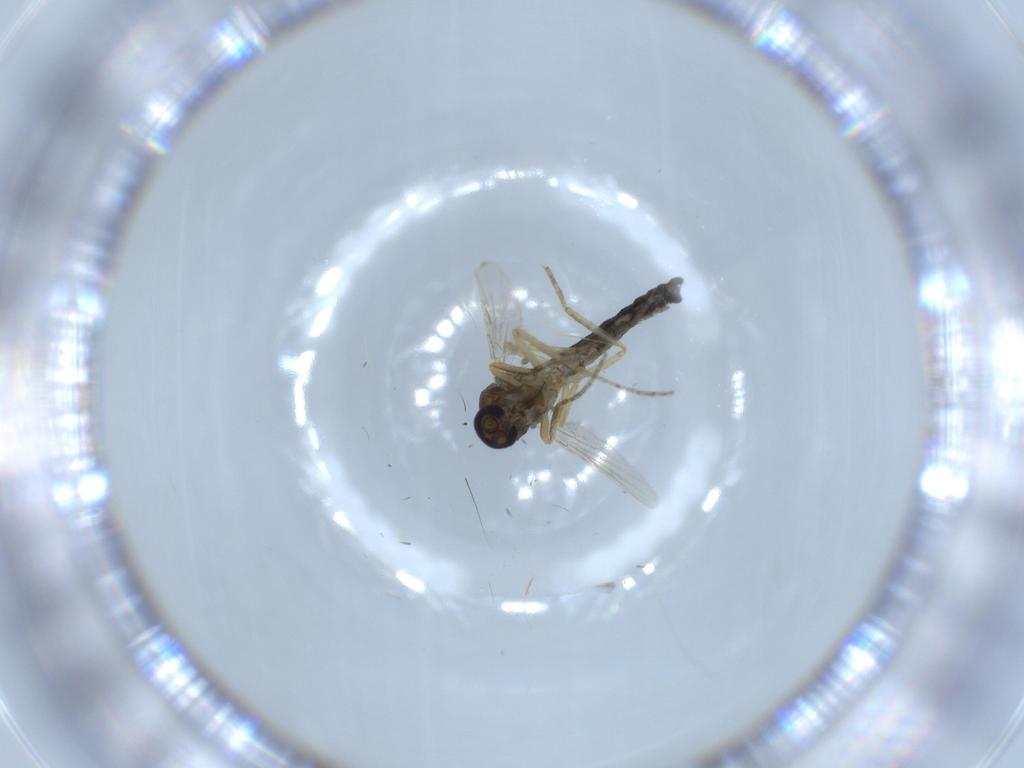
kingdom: Animalia
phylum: Arthropoda
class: Insecta
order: Diptera
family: Ceratopogonidae
